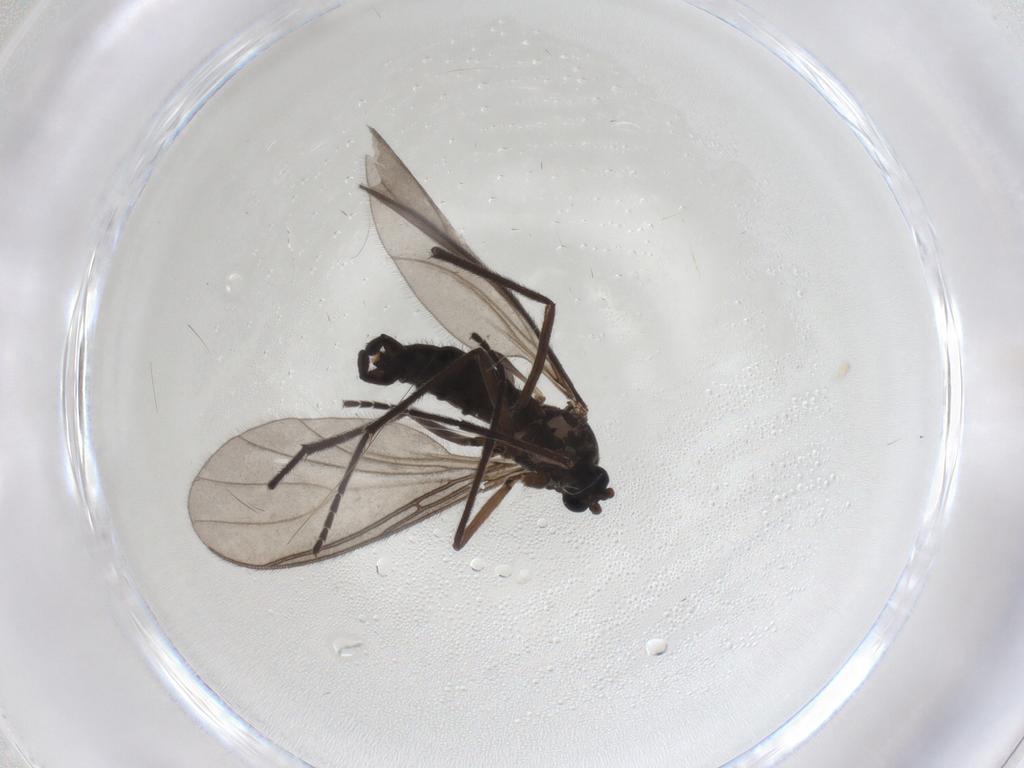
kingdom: Animalia
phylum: Arthropoda
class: Insecta
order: Diptera
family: Sciaridae
